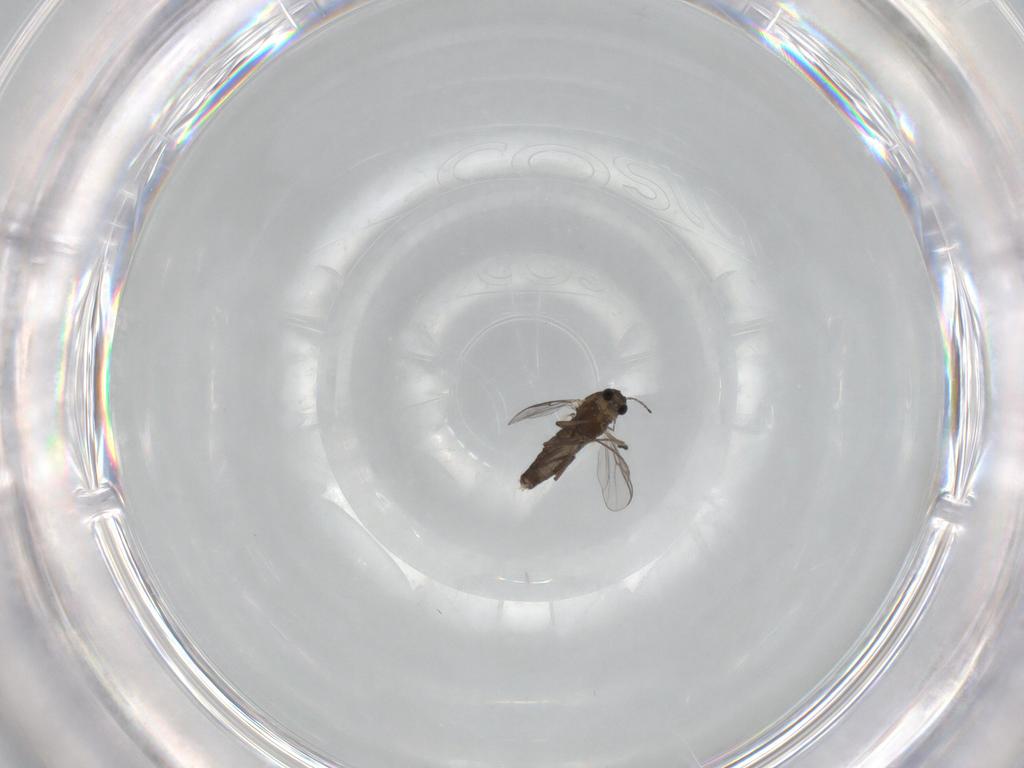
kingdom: Animalia
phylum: Arthropoda
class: Insecta
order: Diptera
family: Chironomidae
